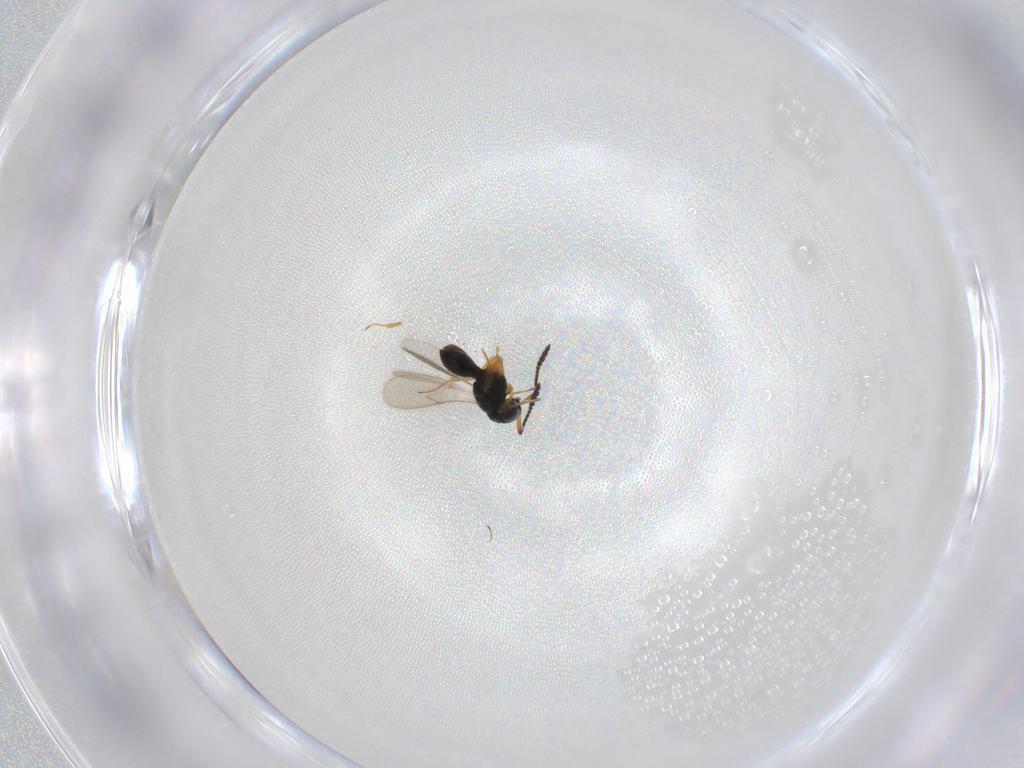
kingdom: Animalia
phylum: Arthropoda
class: Insecta
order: Hymenoptera
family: Scelionidae
